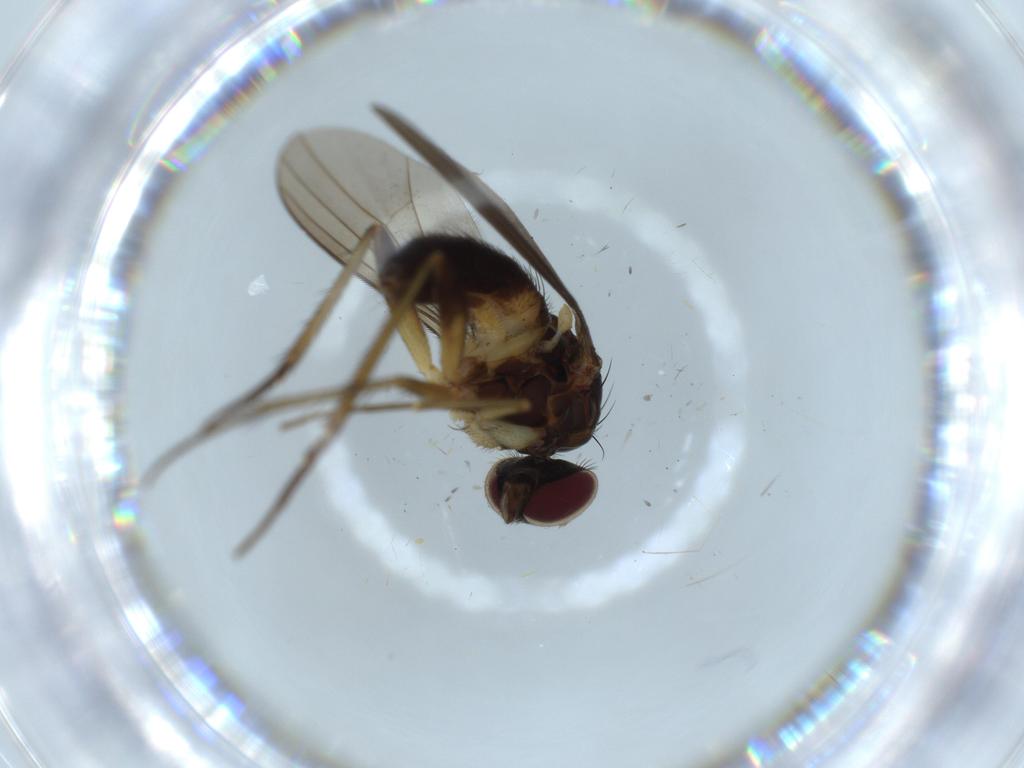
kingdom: Animalia
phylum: Arthropoda
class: Insecta
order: Diptera
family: Dolichopodidae
